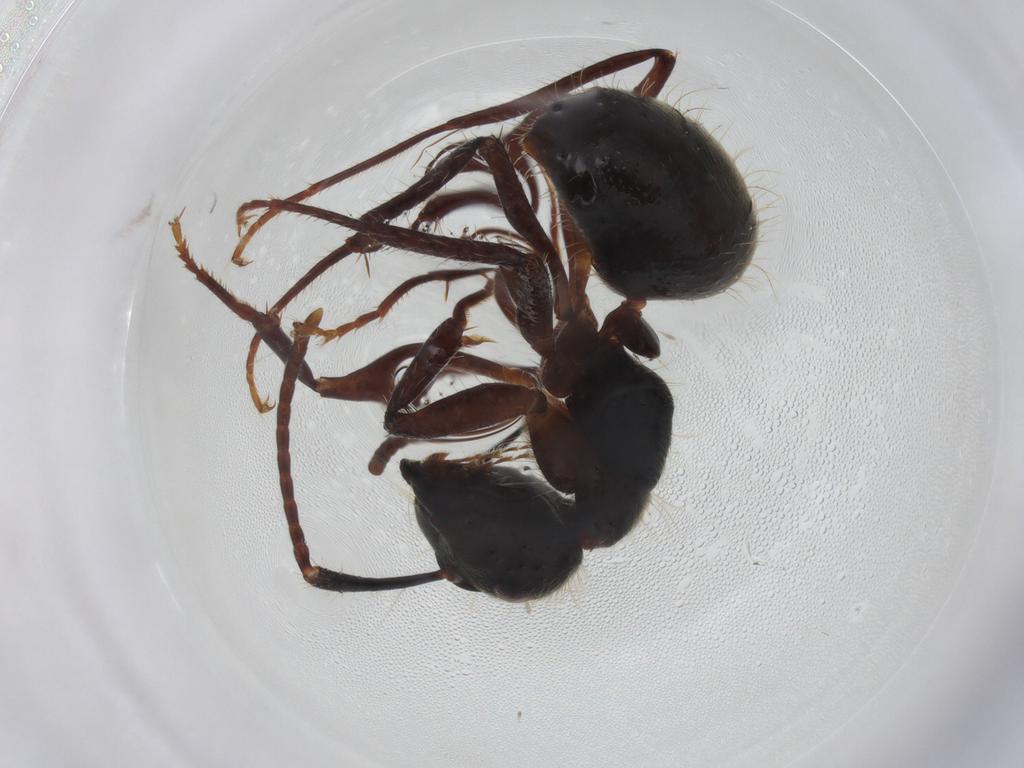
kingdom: Animalia
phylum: Arthropoda
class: Insecta
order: Hymenoptera
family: Formicidae
